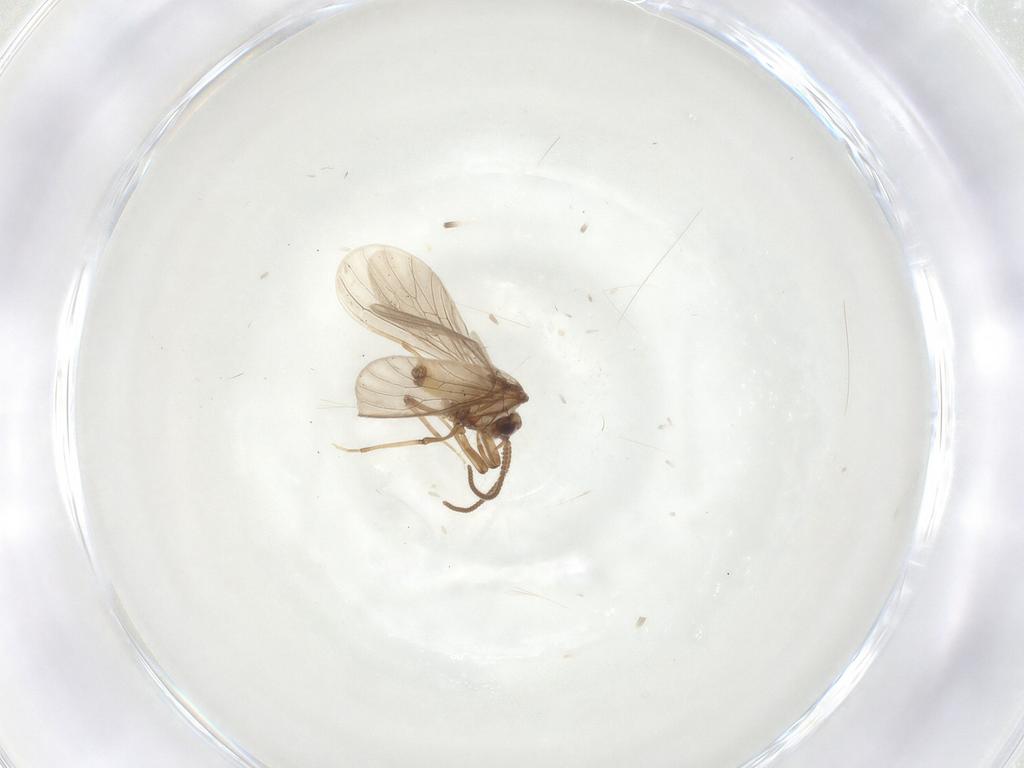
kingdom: Animalia
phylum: Arthropoda
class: Insecta
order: Neuroptera
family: Coniopterygidae
